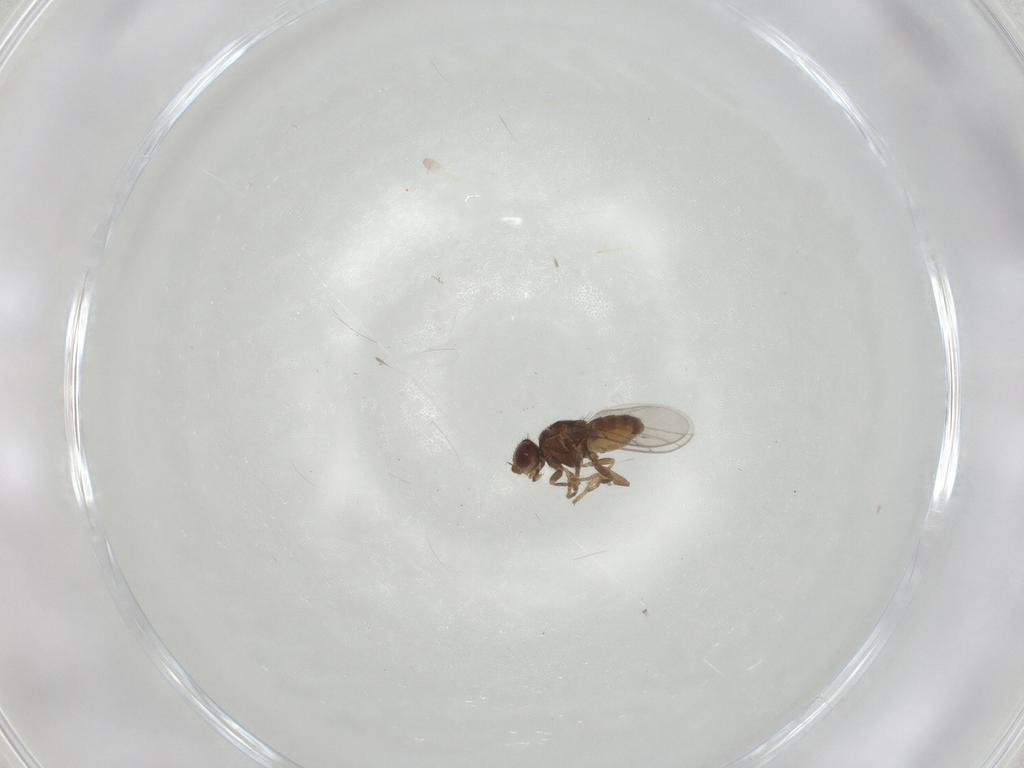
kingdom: Animalia
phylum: Arthropoda
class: Insecta
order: Diptera
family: Chloropidae
